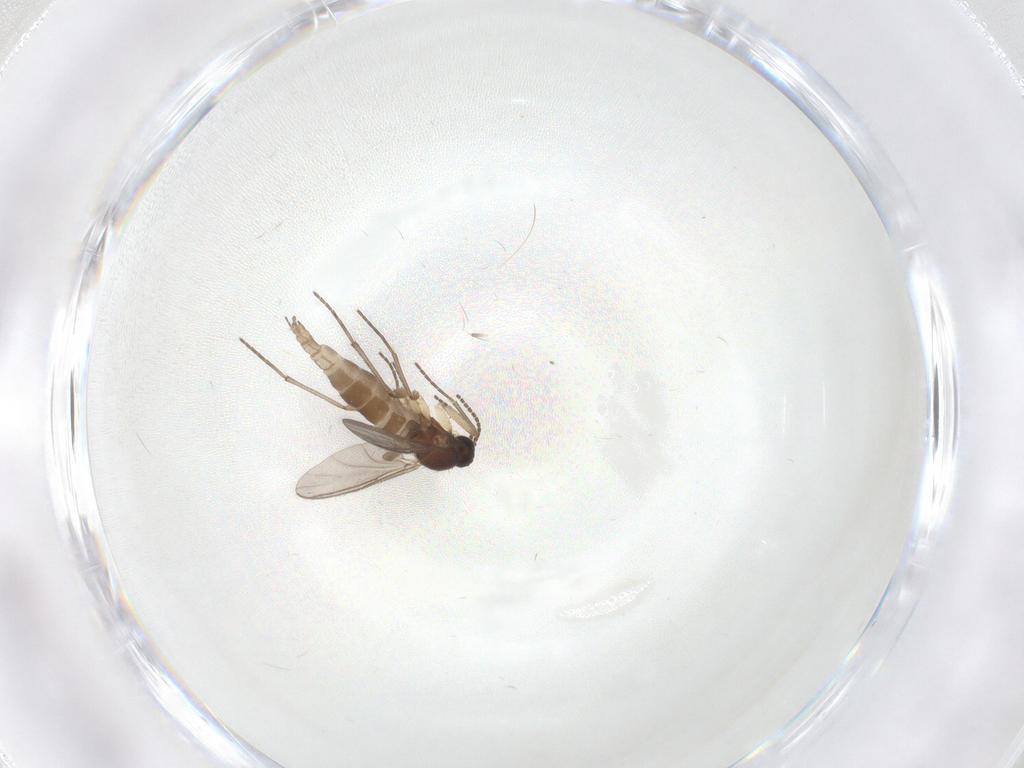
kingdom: Animalia
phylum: Arthropoda
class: Insecta
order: Diptera
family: Sciaridae
